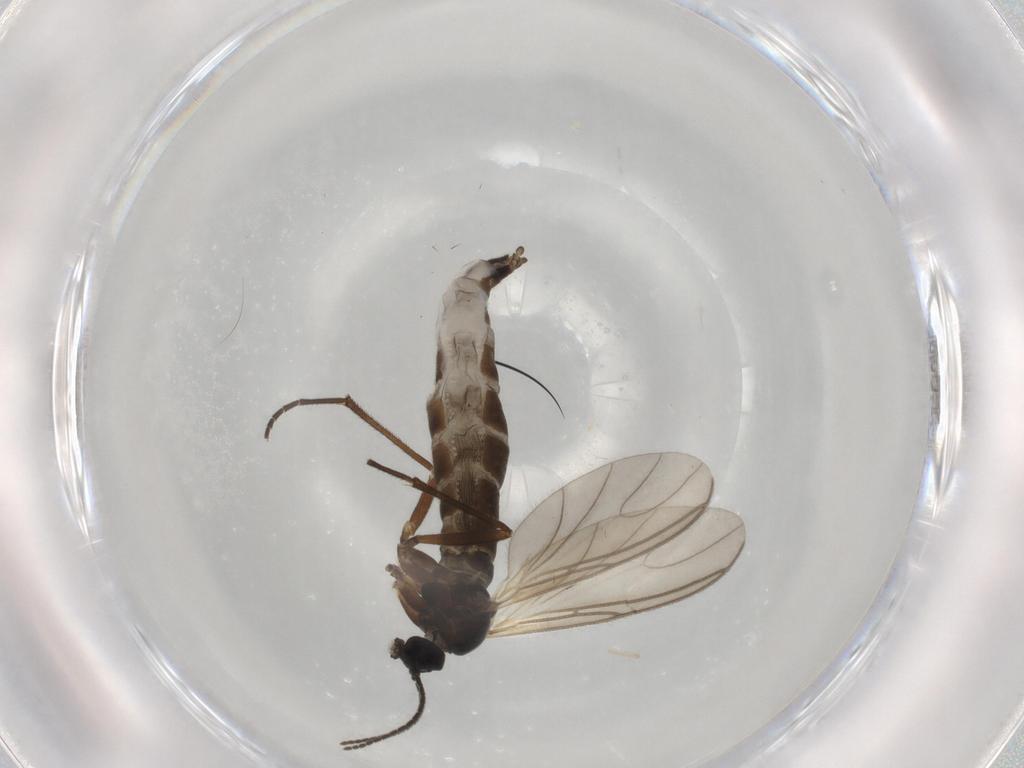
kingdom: Animalia
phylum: Arthropoda
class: Insecta
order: Diptera
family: Sciaridae
